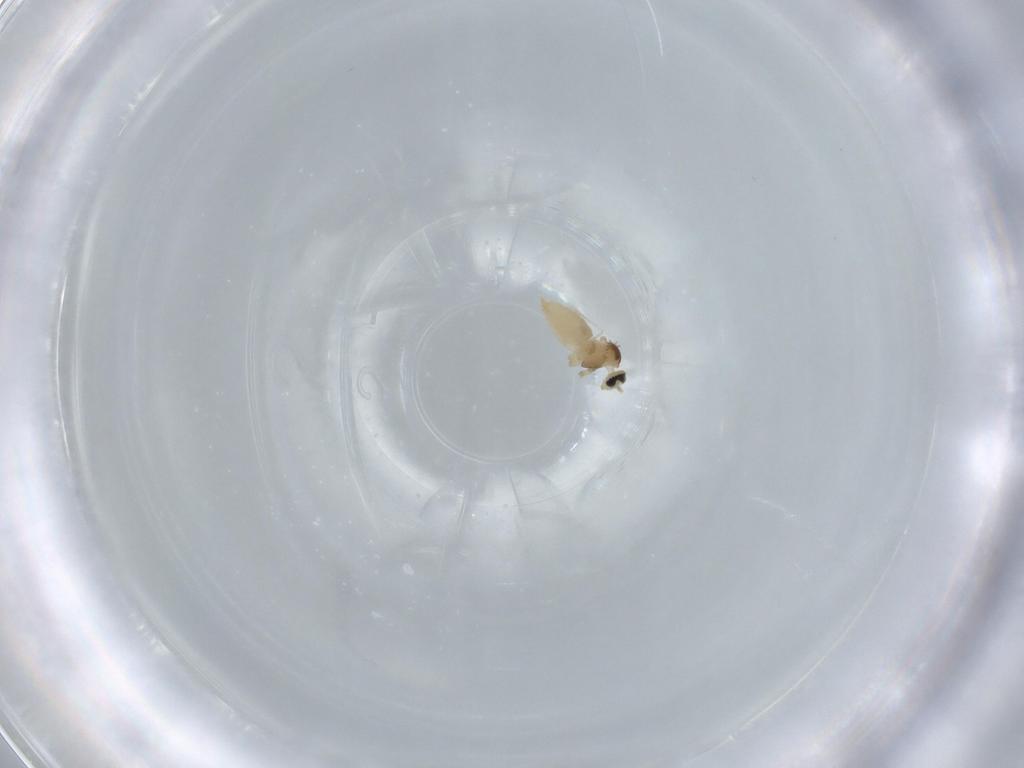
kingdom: Animalia
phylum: Arthropoda
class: Insecta
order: Diptera
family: Cecidomyiidae
